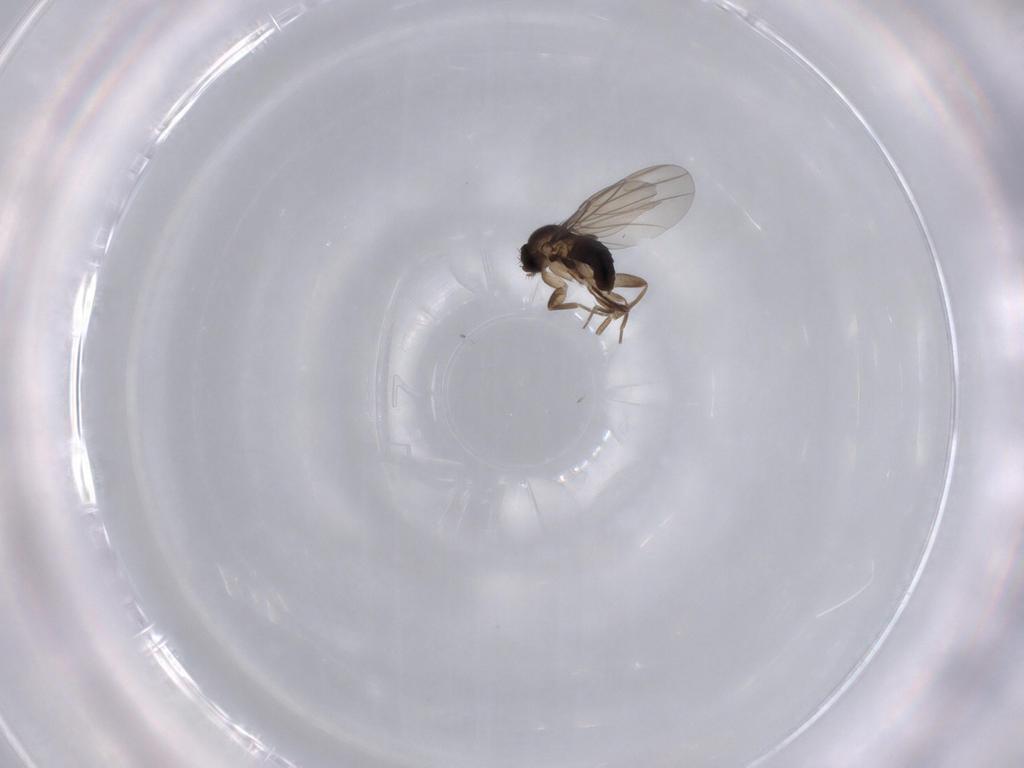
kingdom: Animalia
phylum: Arthropoda
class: Insecta
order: Diptera
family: Phoridae
